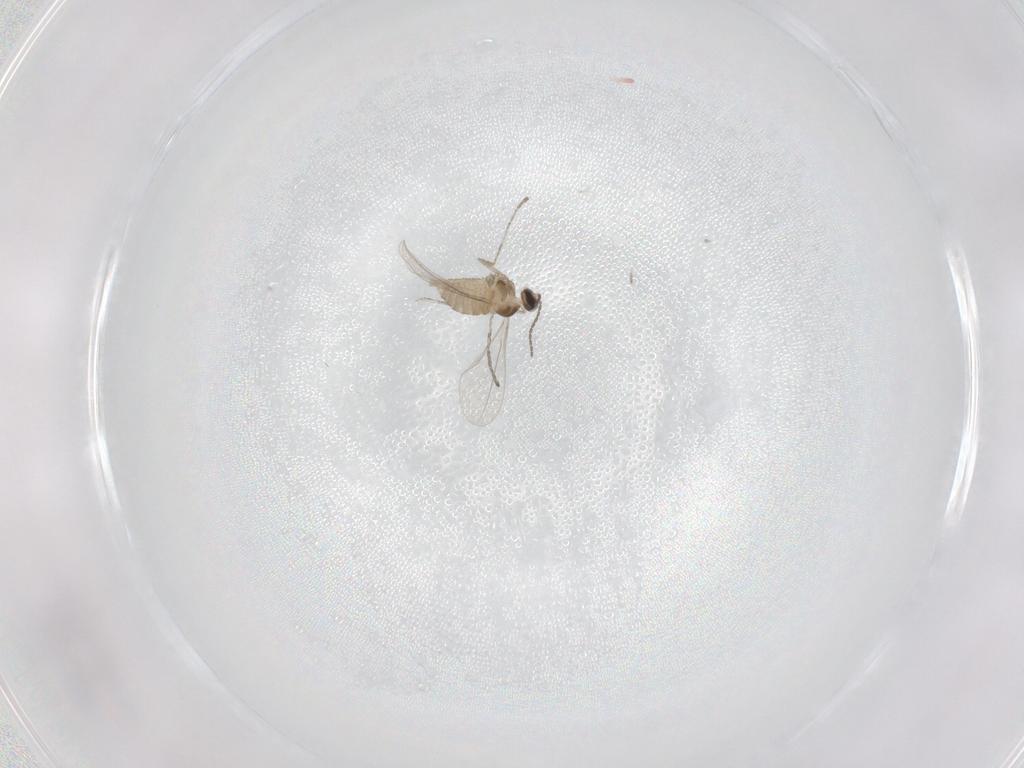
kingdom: Animalia
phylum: Arthropoda
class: Insecta
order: Diptera
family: Cecidomyiidae
